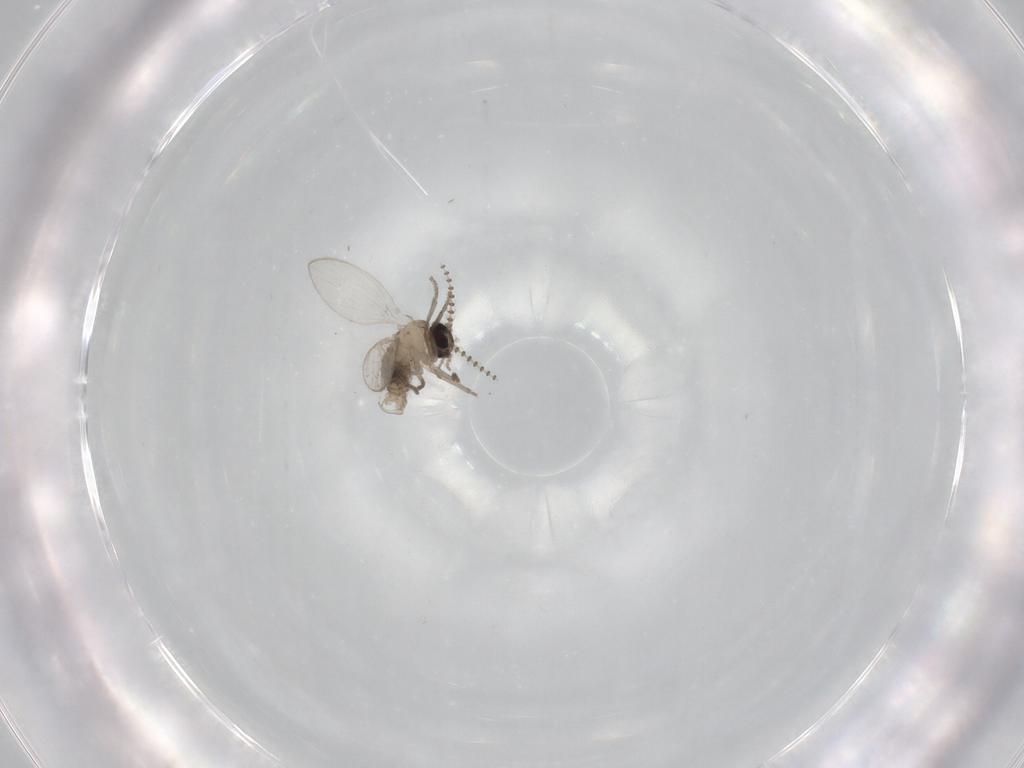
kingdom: Animalia
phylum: Arthropoda
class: Insecta
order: Diptera
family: Psychodidae
